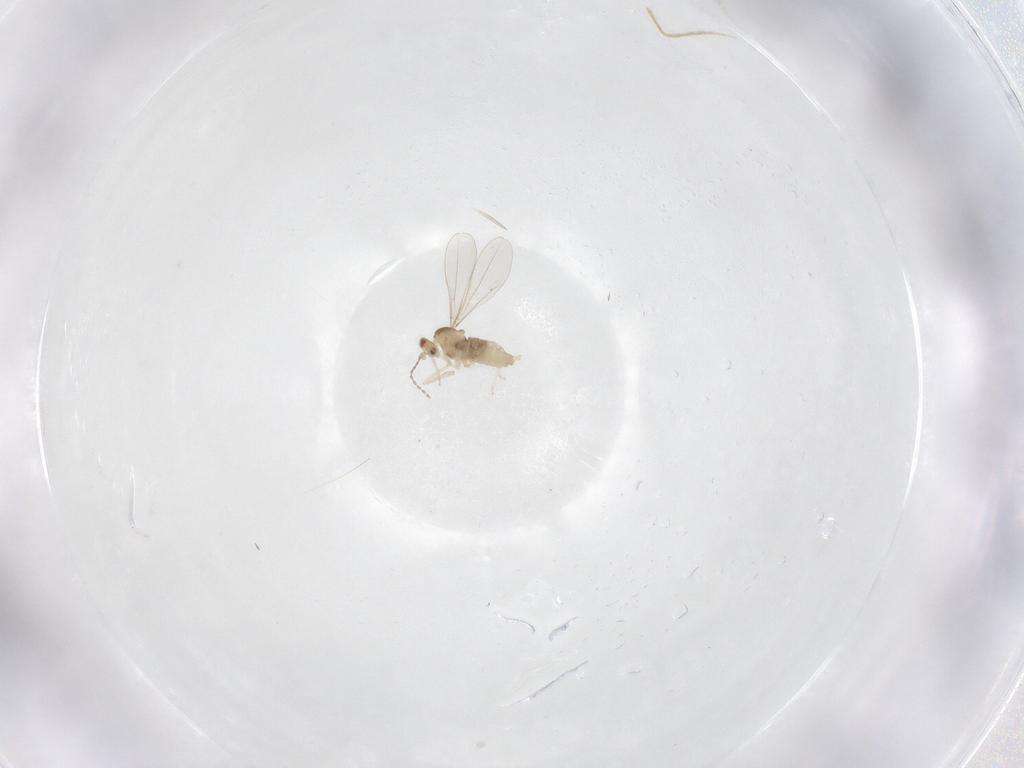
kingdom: Animalia
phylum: Arthropoda
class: Insecta
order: Diptera
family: Cecidomyiidae
